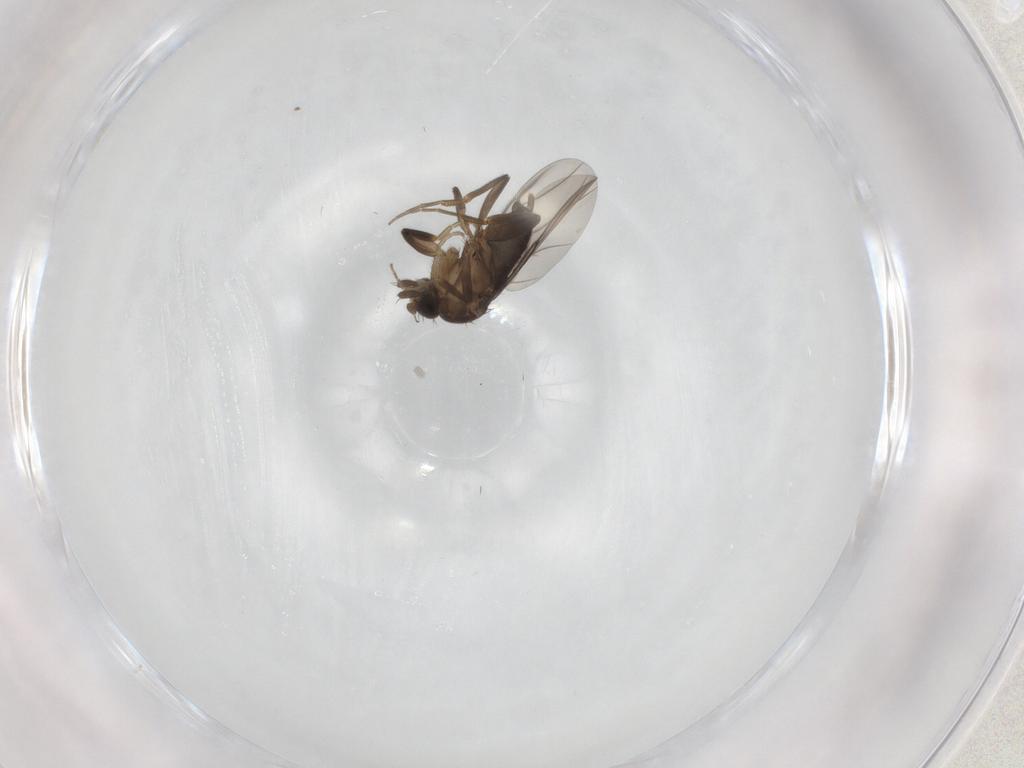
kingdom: Animalia
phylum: Arthropoda
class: Insecta
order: Diptera
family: Phoridae
